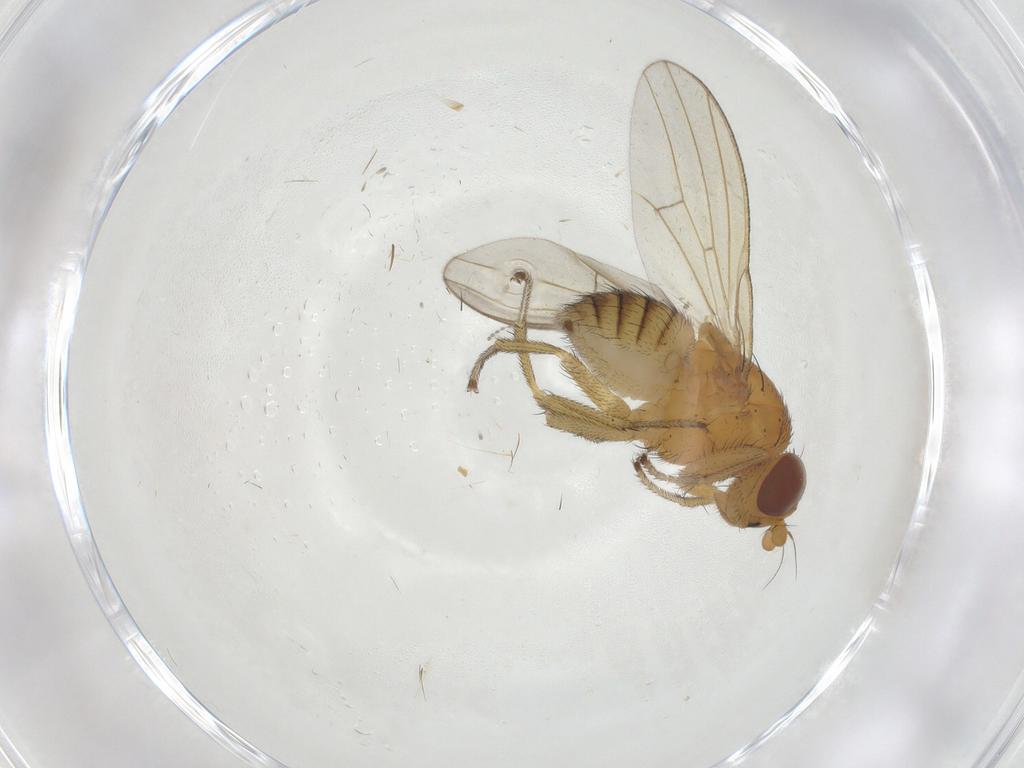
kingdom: Animalia
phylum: Arthropoda
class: Insecta
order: Diptera
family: Cecidomyiidae
